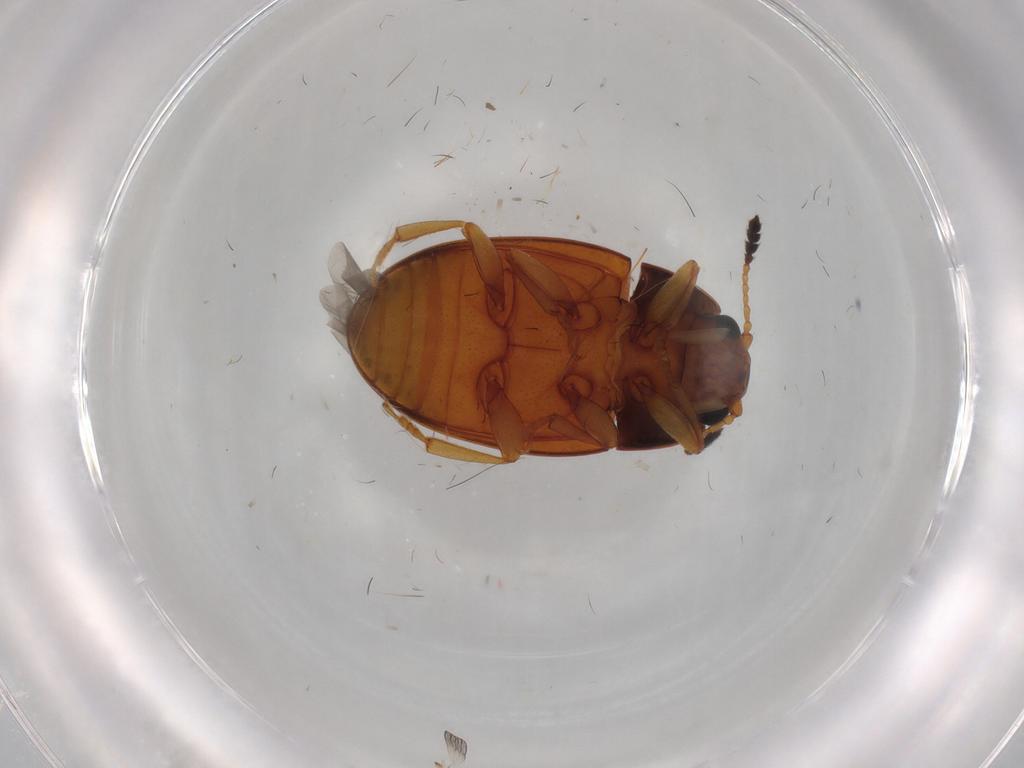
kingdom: Animalia
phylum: Arthropoda
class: Insecta
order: Coleoptera
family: Erotylidae
